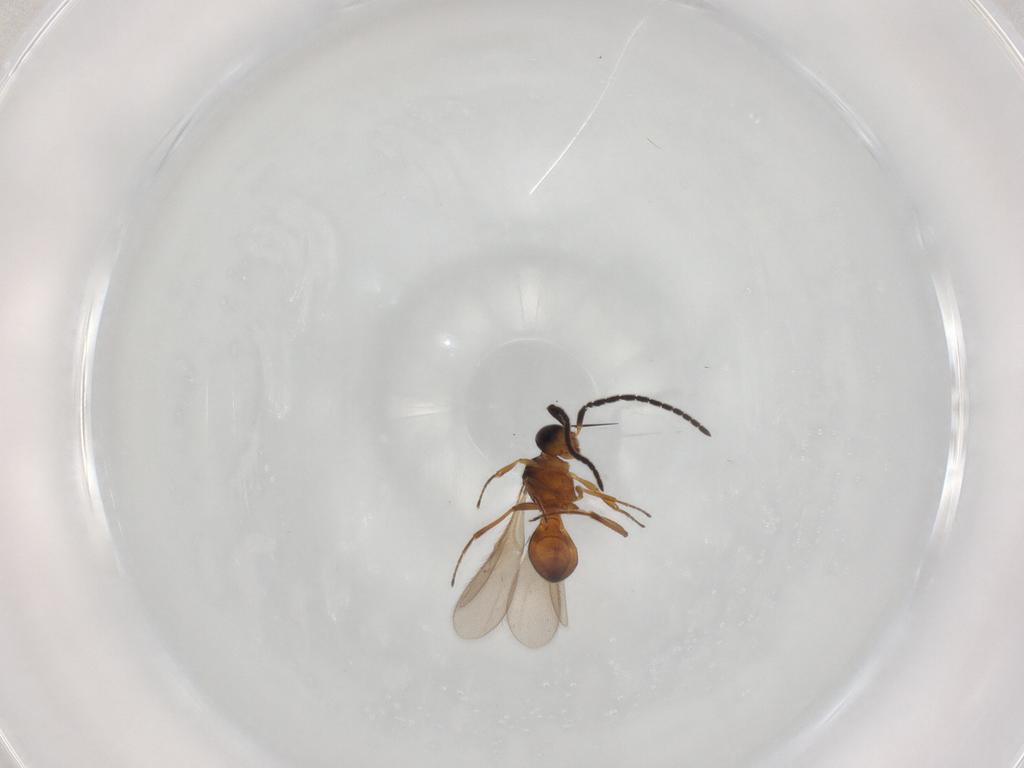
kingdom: Animalia
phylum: Arthropoda
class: Insecta
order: Hymenoptera
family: Scelionidae
